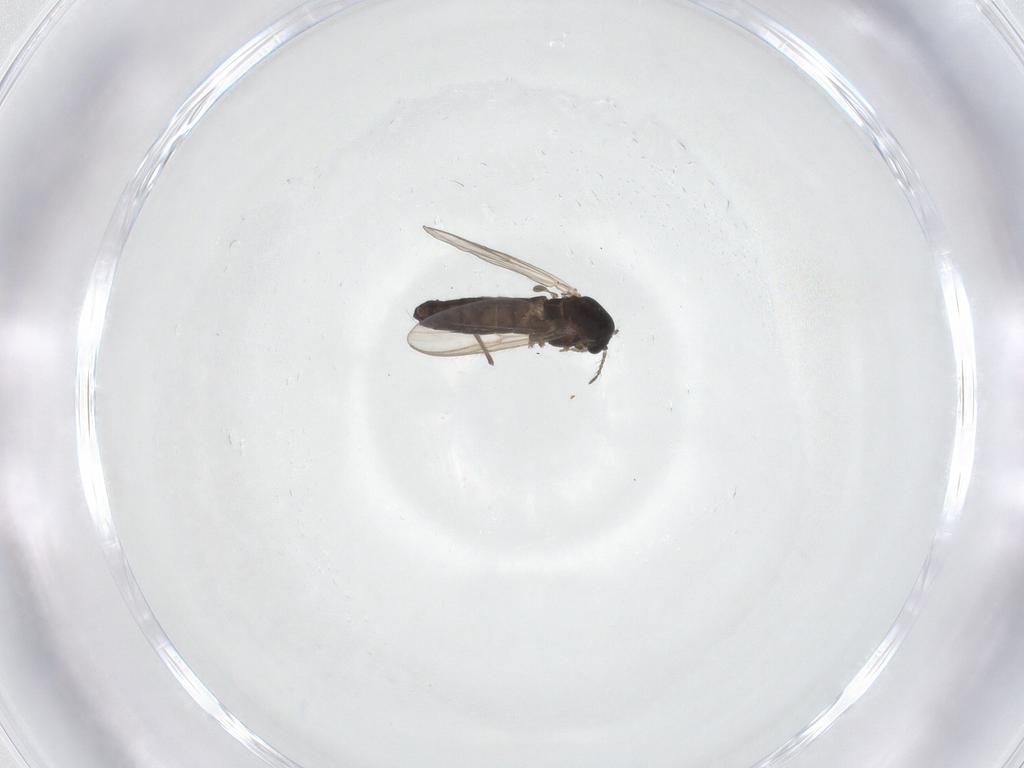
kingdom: Animalia
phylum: Arthropoda
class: Insecta
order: Diptera
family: Chironomidae
